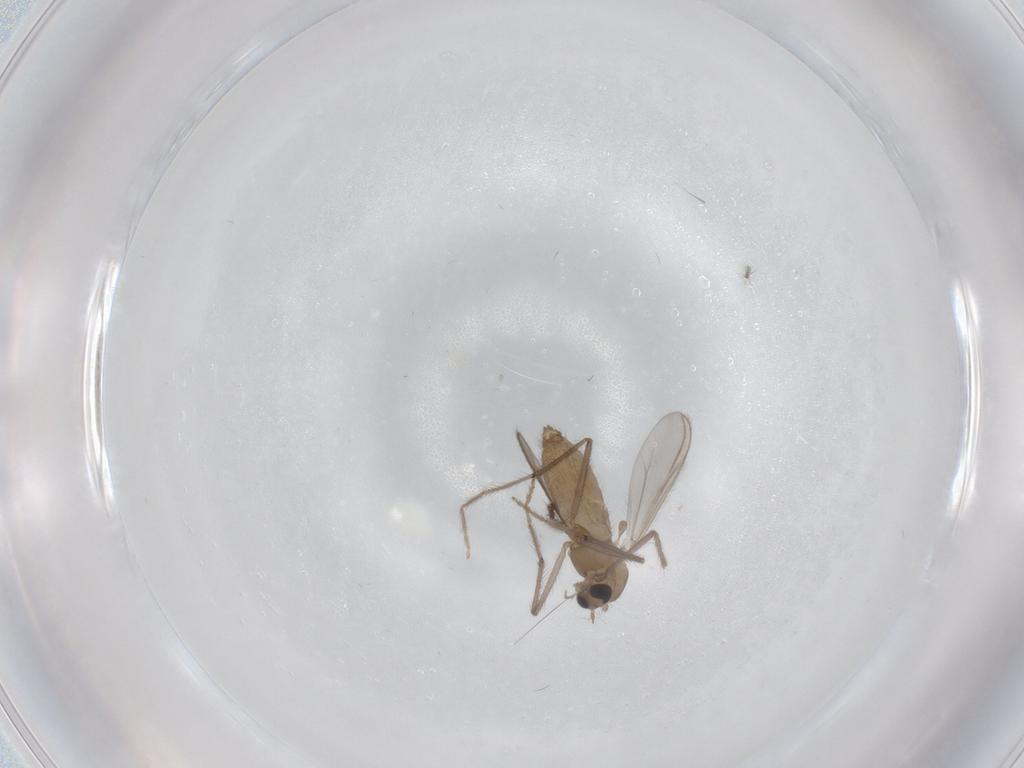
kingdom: Animalia
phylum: Arthropoda
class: Insecta
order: Diptera
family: Chironomidae
